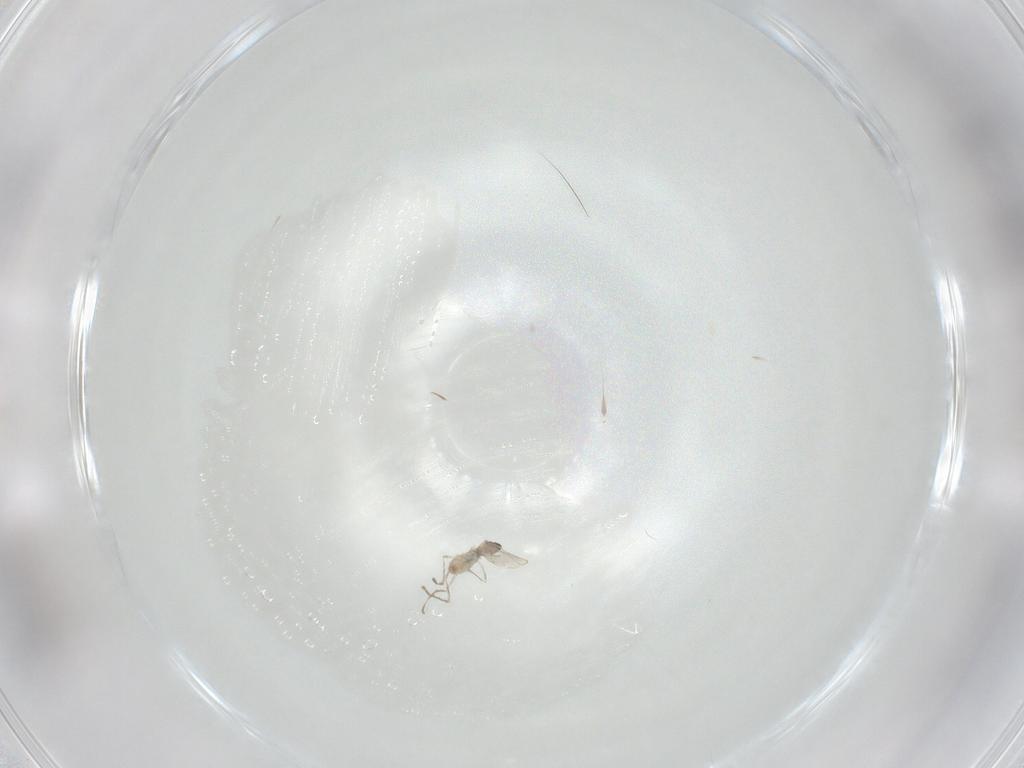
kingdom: Animalia
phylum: Arthropoda
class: Insecta
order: Diptera
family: Cecidomyiidae
